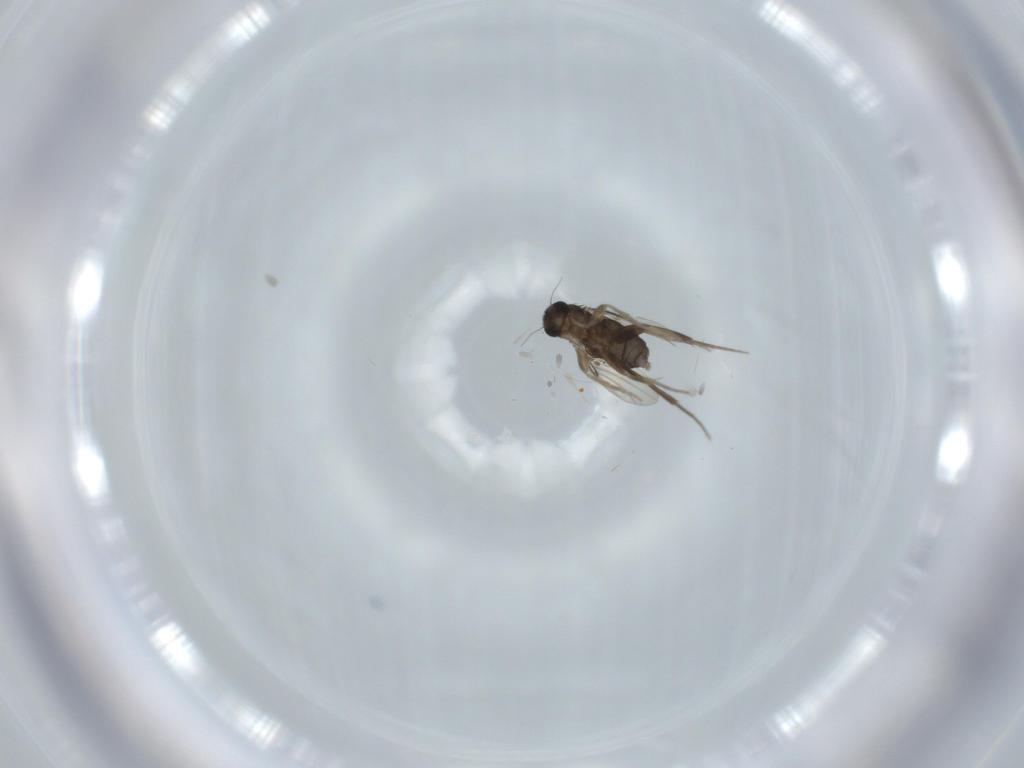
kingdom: Animalia
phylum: Arthropoda
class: Insecta
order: Diptera
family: Phoridae
